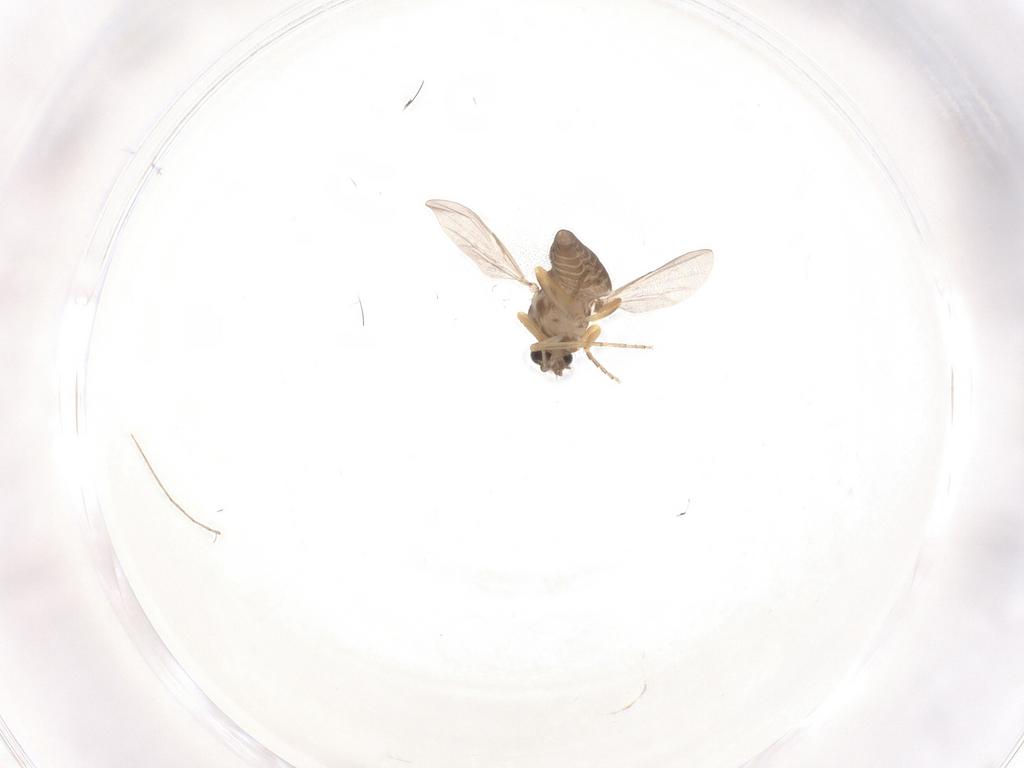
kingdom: Animalia
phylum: Arthropoda
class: Insecta
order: Diptera
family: Ceratopogonidae
